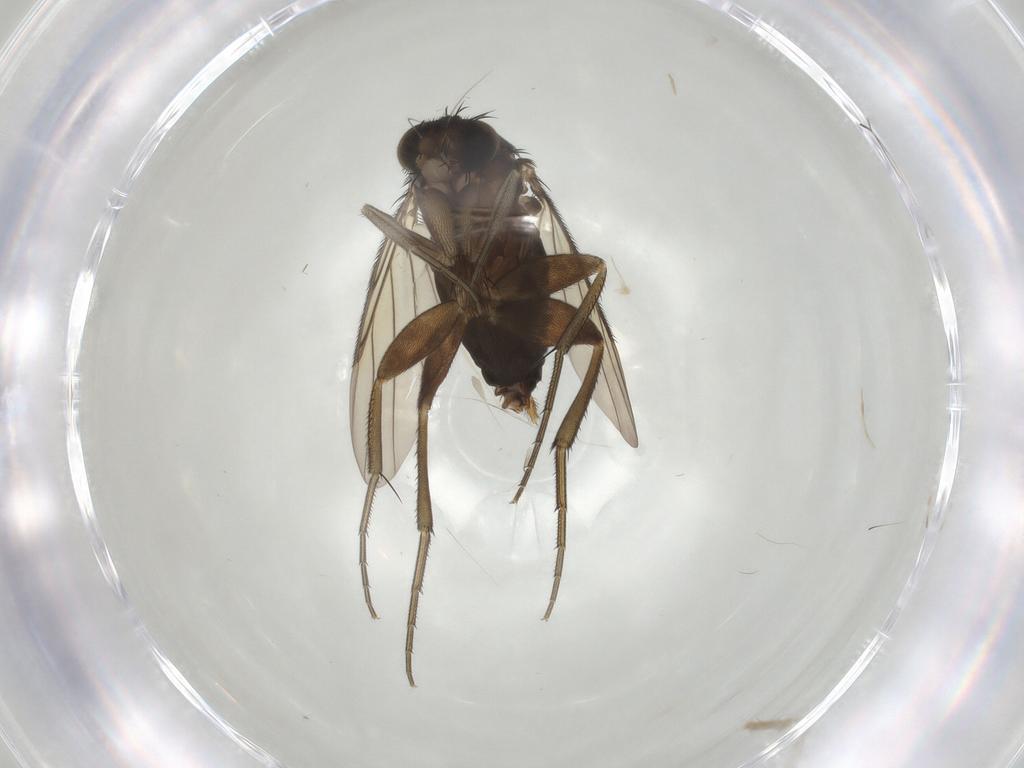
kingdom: Animalia
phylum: Arthropoda
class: Insecta
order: Diptera
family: Phoridae
